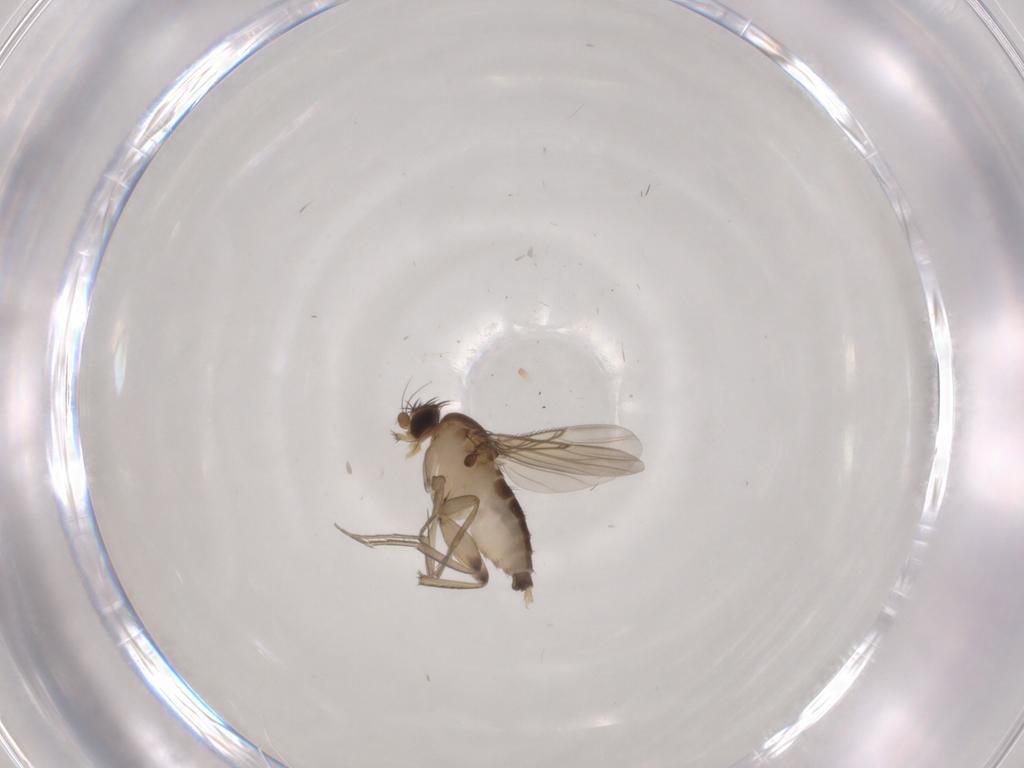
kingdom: Animalia
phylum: Arthropoda
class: Insecta
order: Diptera
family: Phoridae
